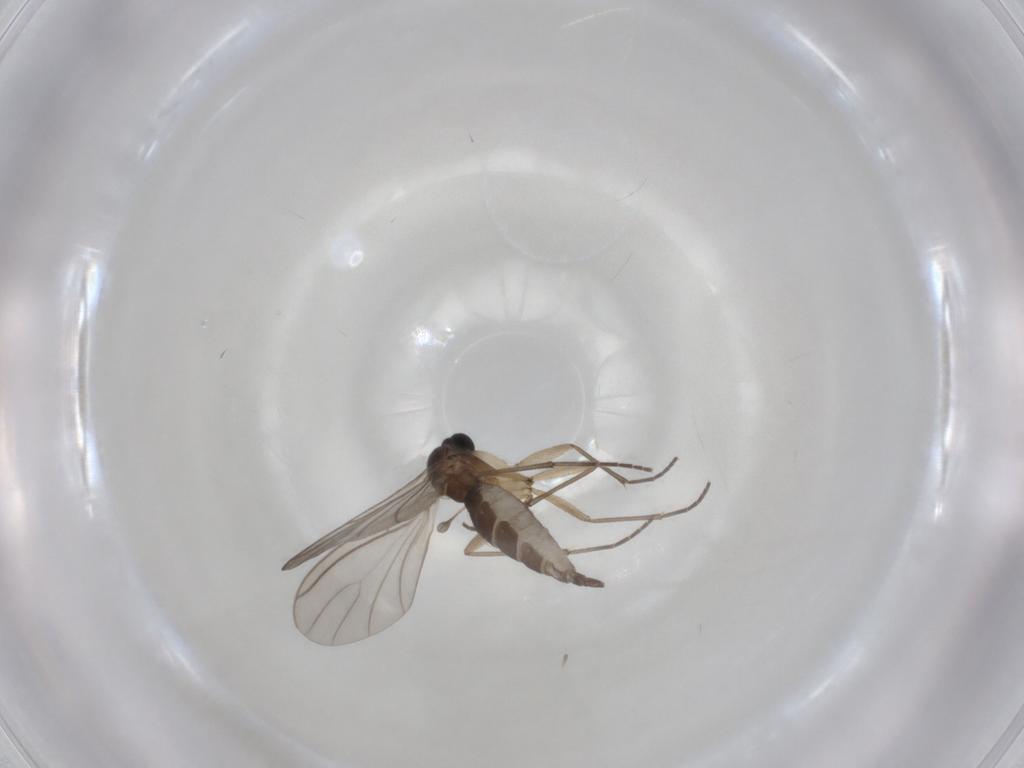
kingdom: Animalia
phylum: Arthropoda
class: Insecta
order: Diptera
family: Sciaridae
